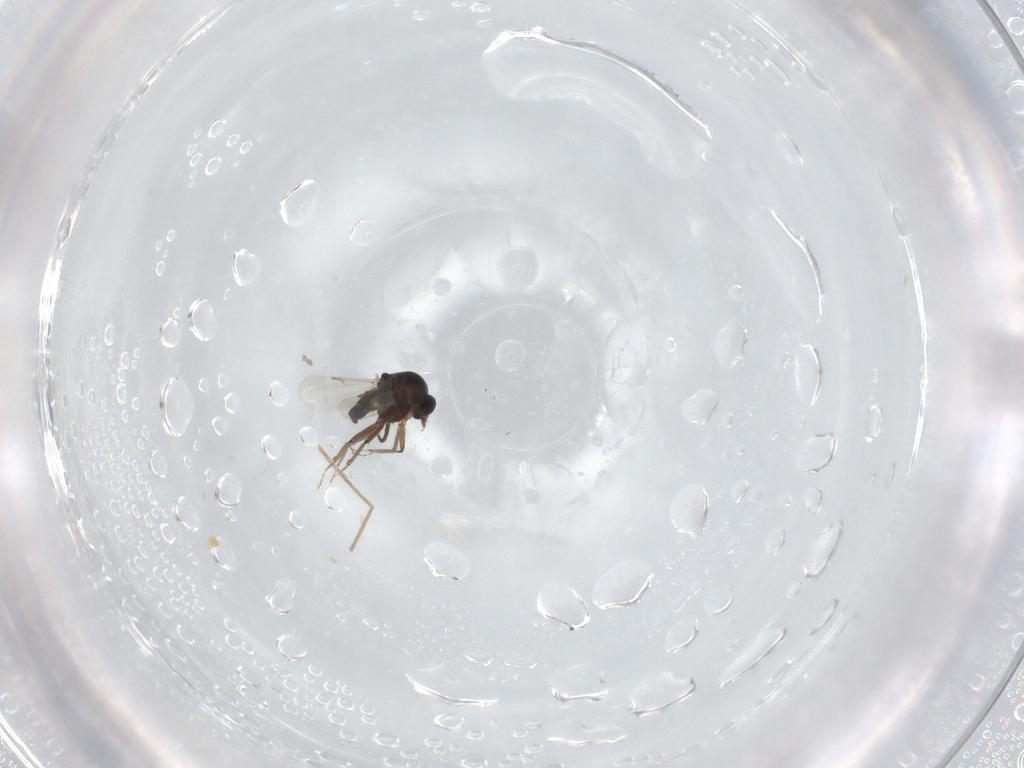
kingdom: Animalia
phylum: Arthropoda
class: Insecta
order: Diptera
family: Ceratopogonidae
